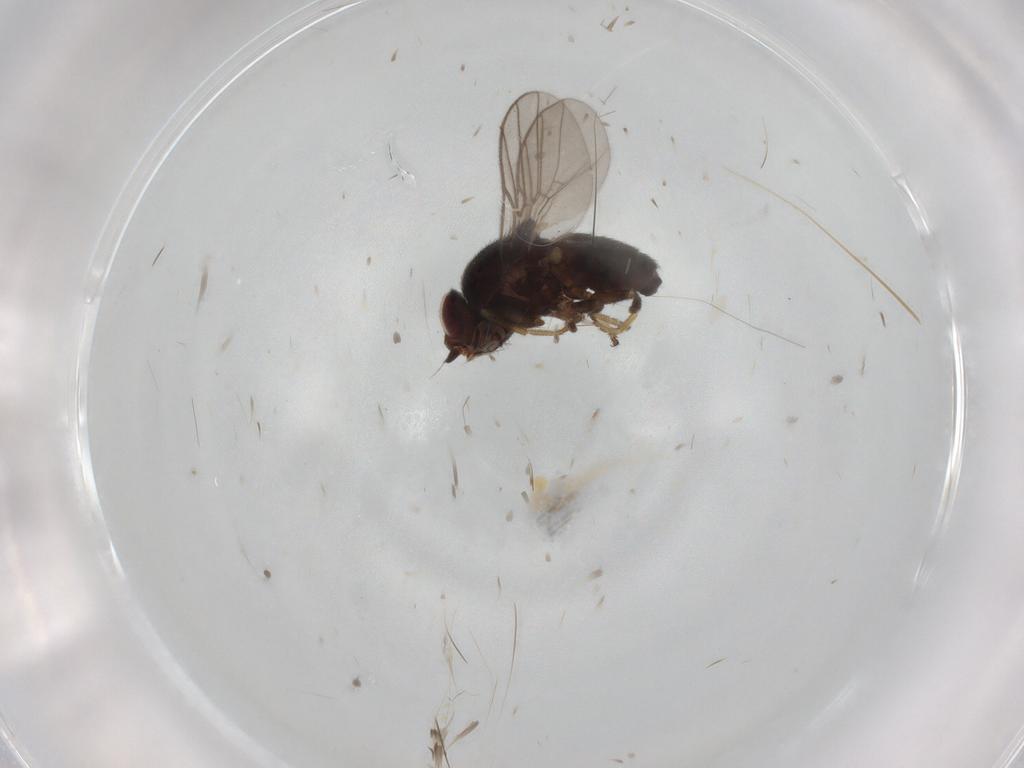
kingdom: Animalia
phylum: Arthropoda
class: Insecta
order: Diptera
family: Chloropidae
